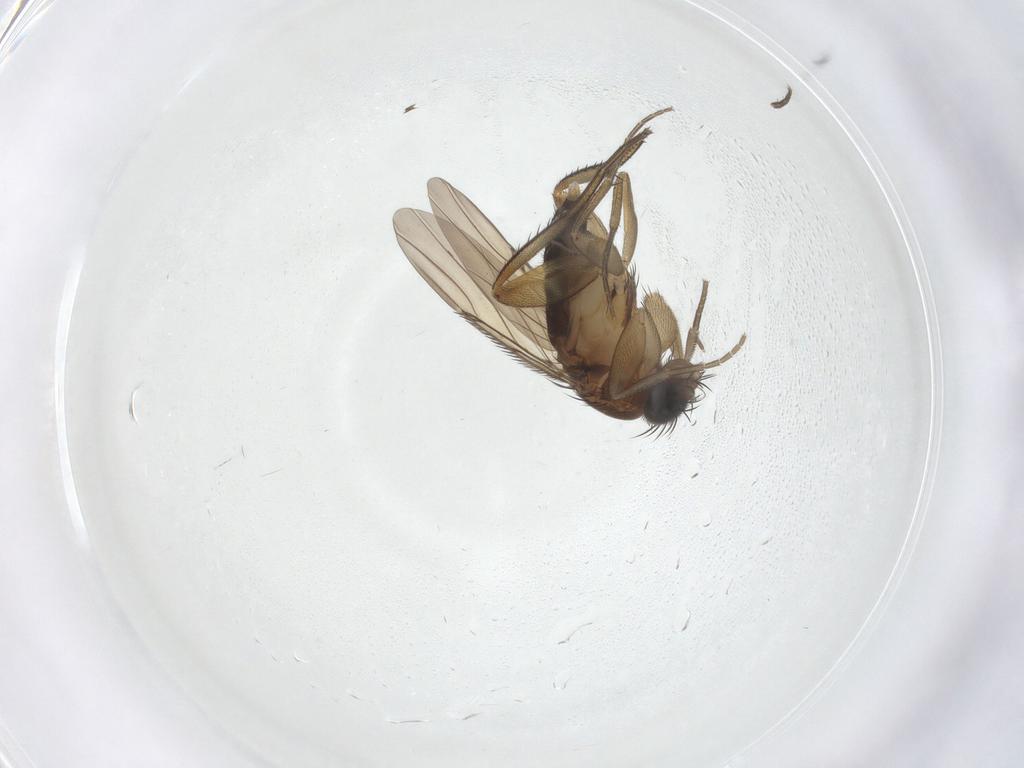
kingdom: Animalia
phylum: Arthropoda
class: Insecta
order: Diptera
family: Phoridae
